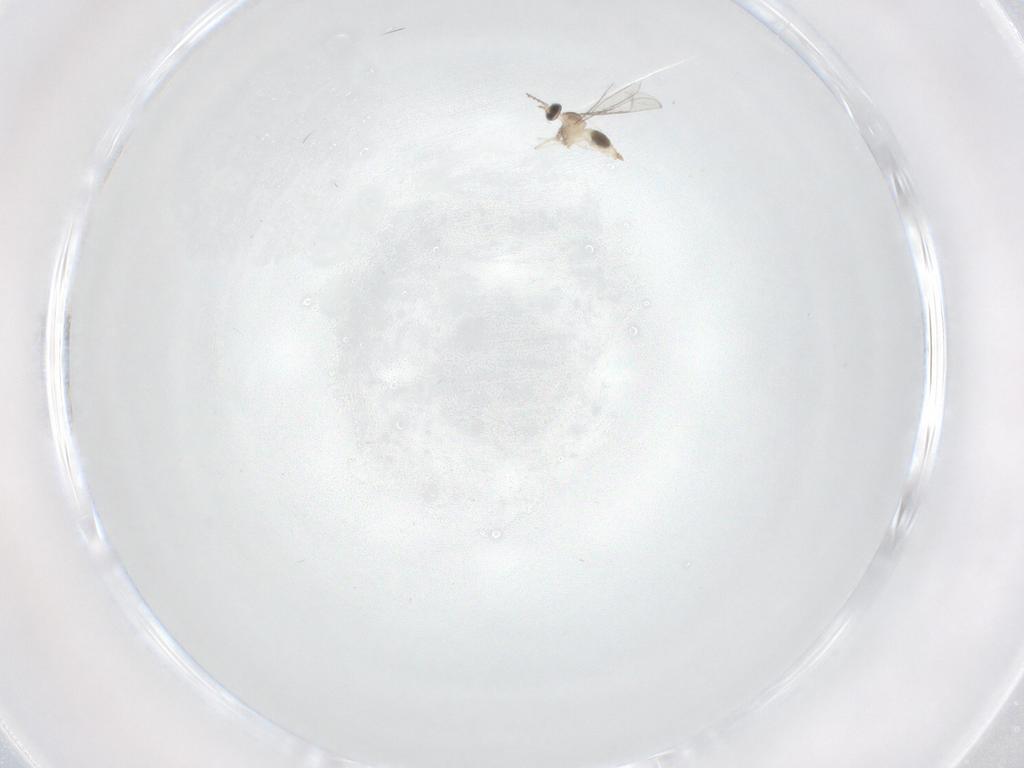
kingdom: Animalia
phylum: Arthropoda
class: Insecta
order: Diptera
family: Cecidomyiidae
